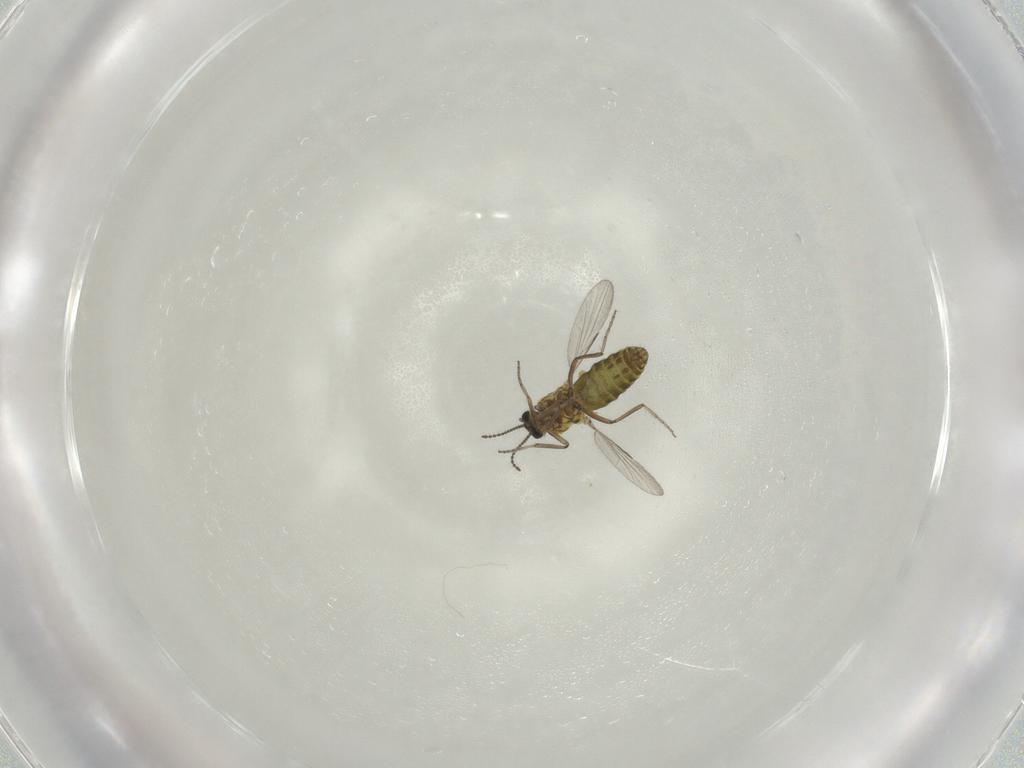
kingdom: Animalia
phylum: Arthropoda
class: Insecta
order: Diptera
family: Ceratopogonidae
